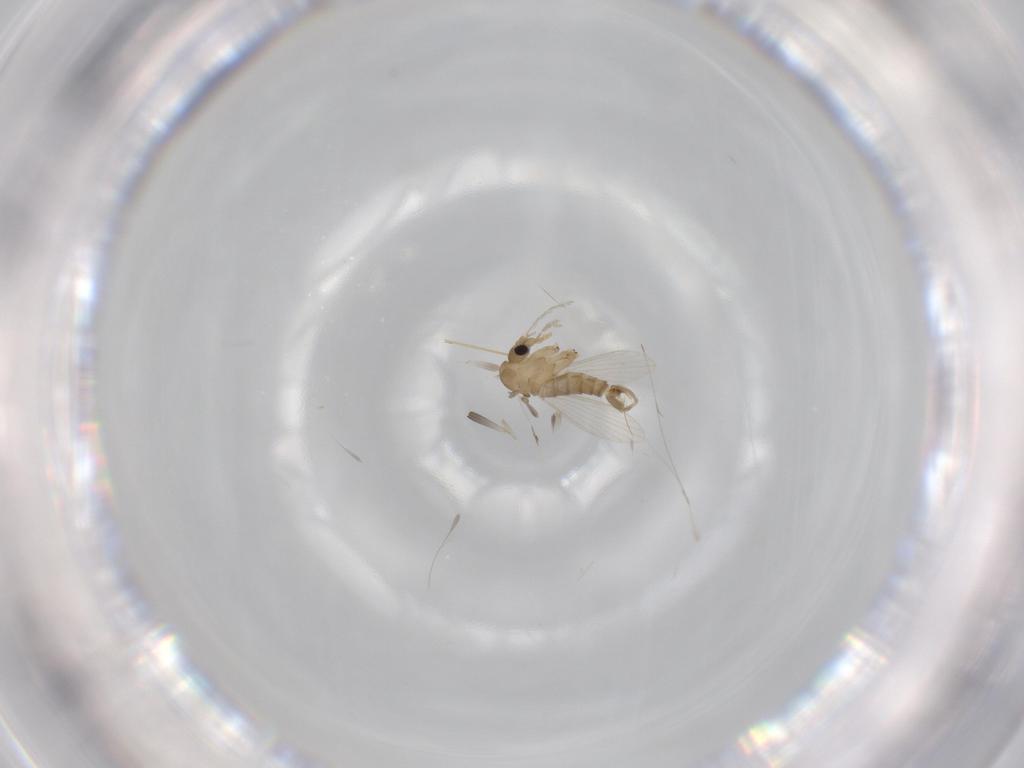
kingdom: Animalia
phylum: Arthropoda
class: Insecta
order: Diptera
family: Psychodidae
